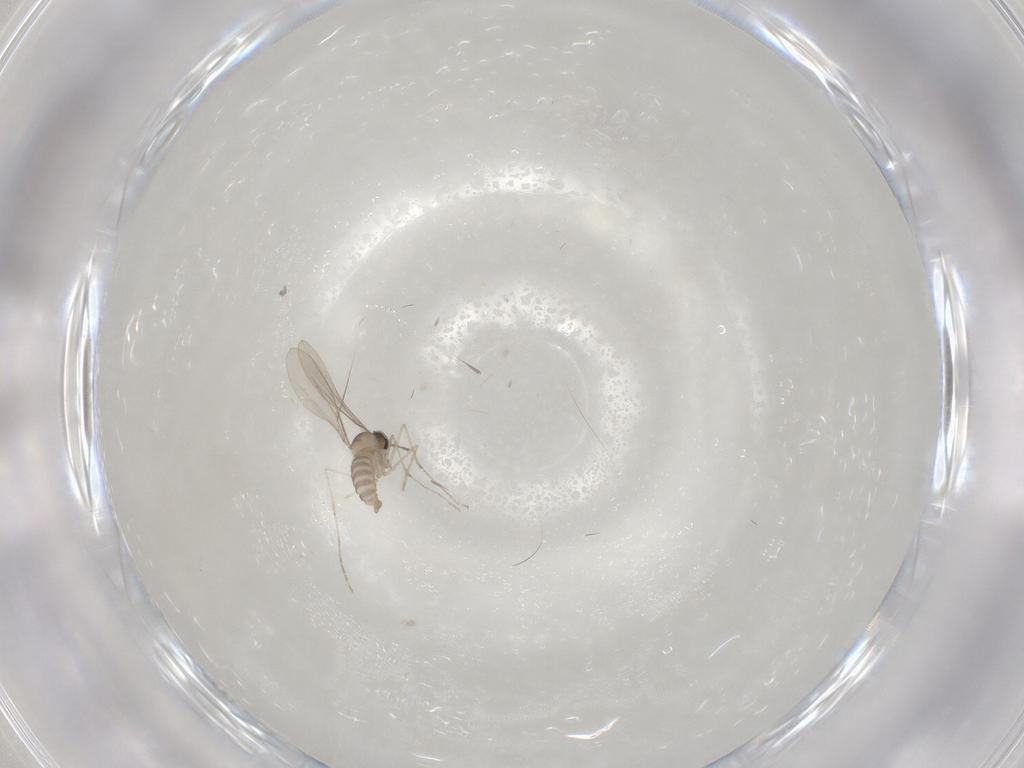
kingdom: Animalia
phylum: Arthropoda
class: Insecta
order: Diptera
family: Cecidomyiidae
